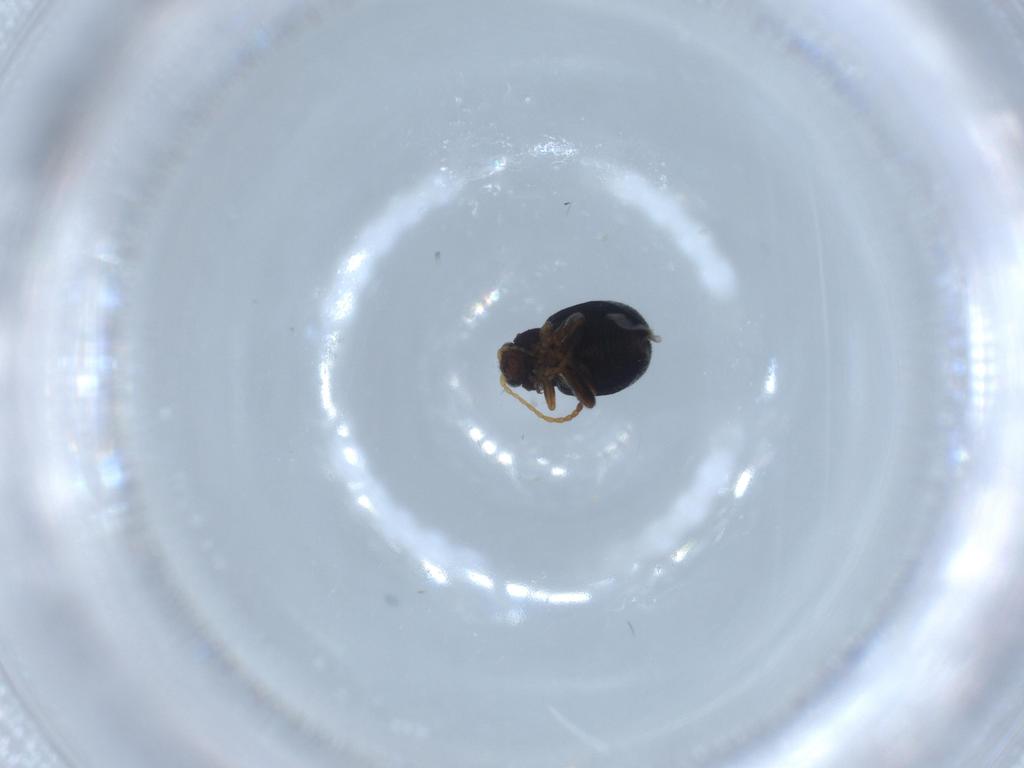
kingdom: Animalia
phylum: Arthropoda
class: Insecta
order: Coleoptera
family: Chrysomelidae
